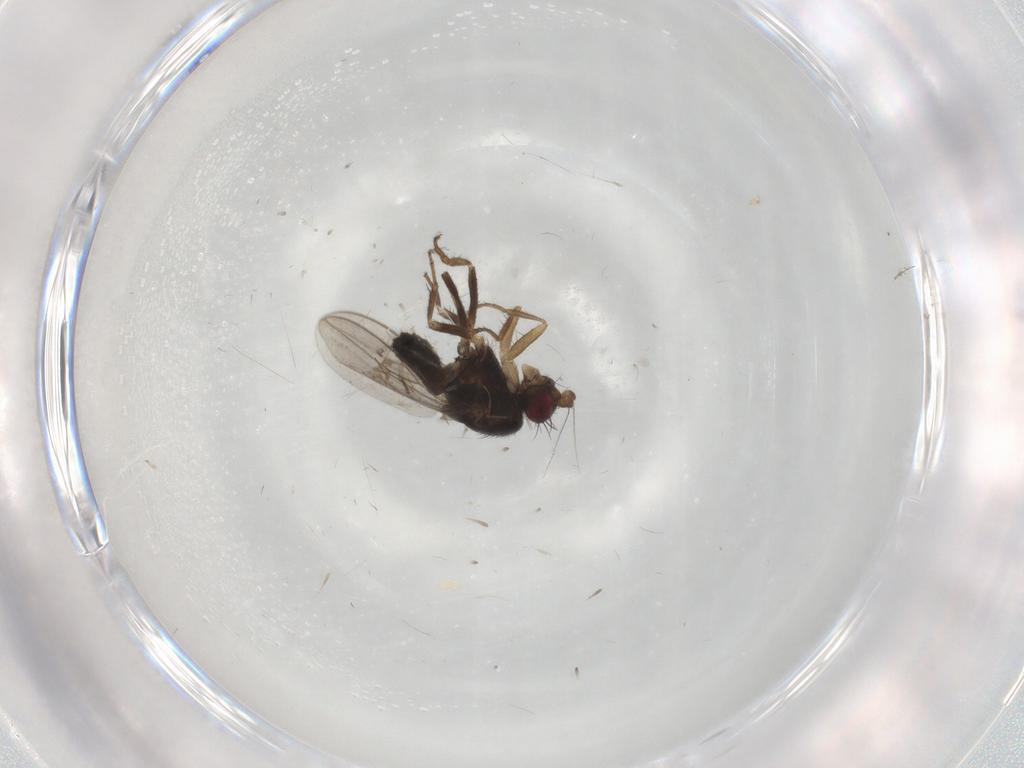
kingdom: Animalia
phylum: Arthropoda
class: Insecta
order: Diptera
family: Sphaeroceridae
